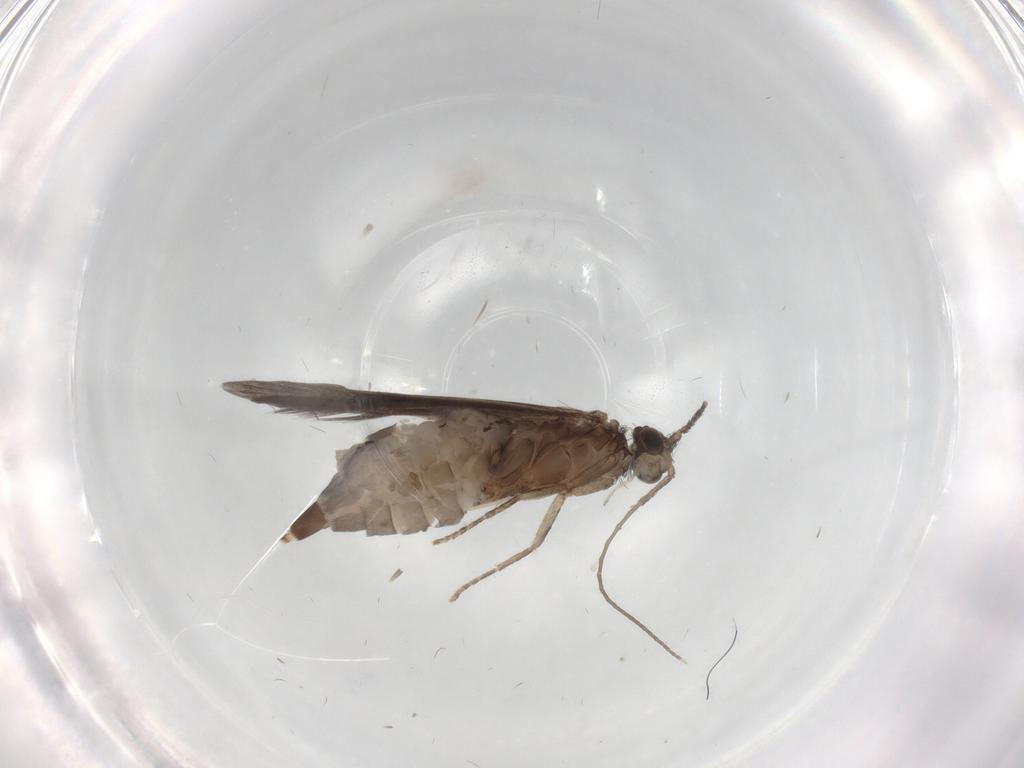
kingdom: Animalia
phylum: Arthropoda
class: Insecta
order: Trichoptera
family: Xiphocentronidae
